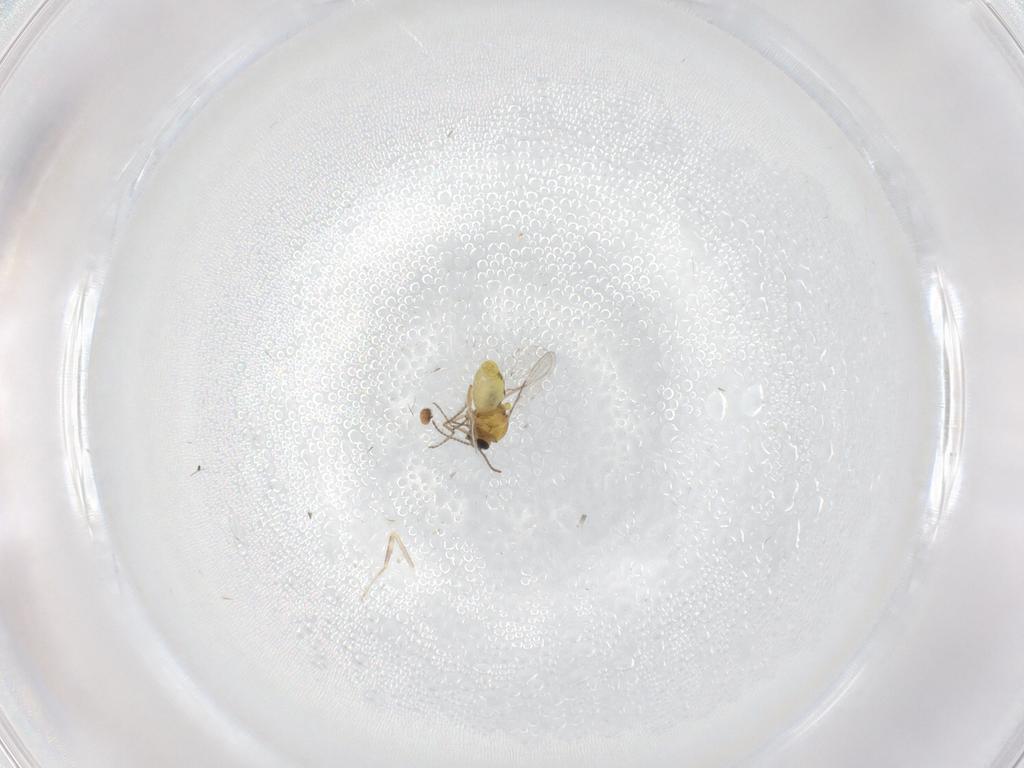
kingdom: Animalia
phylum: Arthropoda
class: Insecta
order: Diptera
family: Ceratopogonidae
